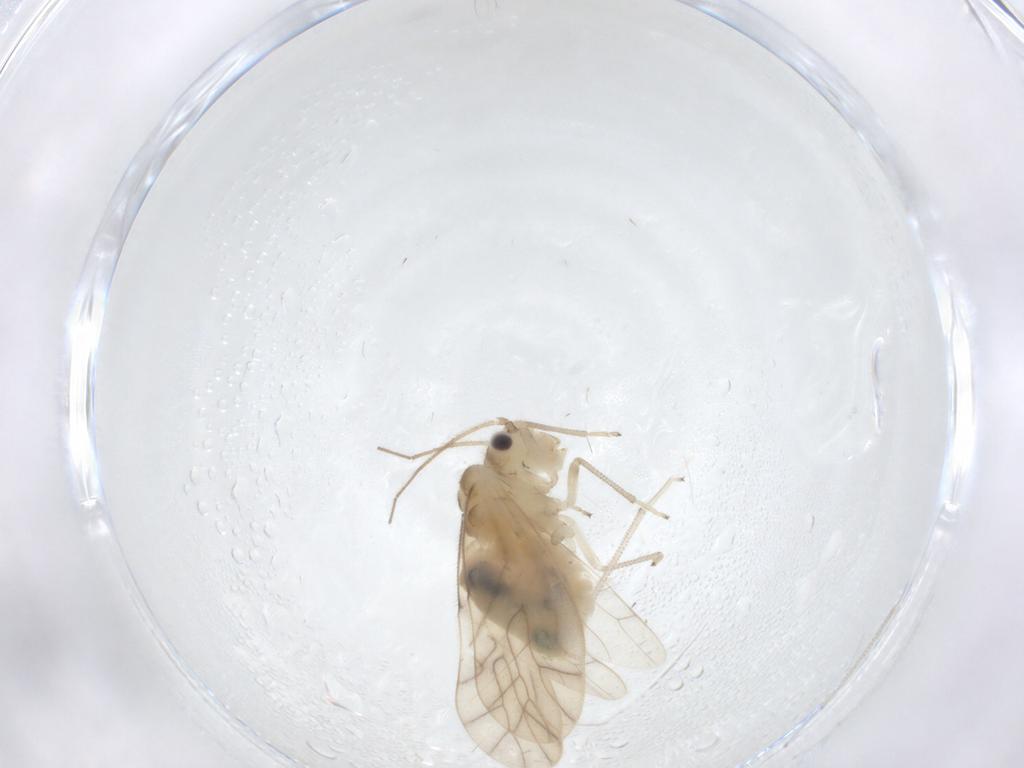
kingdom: Animalia
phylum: Arthropoda
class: Insecta
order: Psocodea
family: Caeciliusidae
